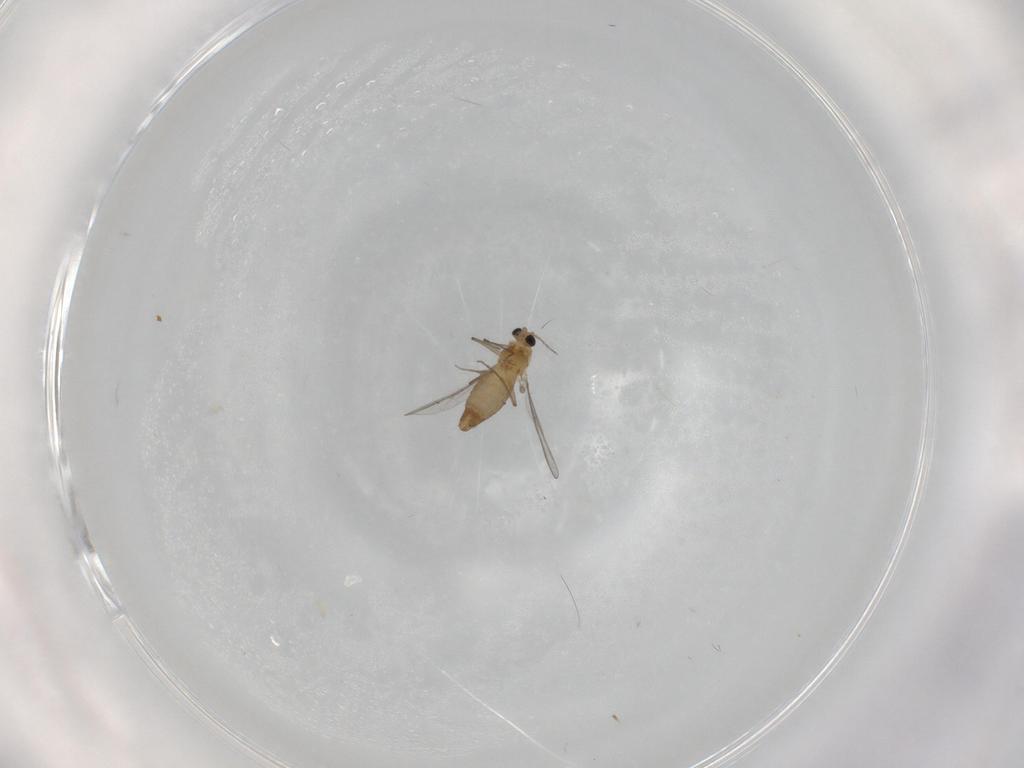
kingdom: Animalia
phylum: Arthropoda
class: Insecta
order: Diptera
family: Chironomidae
